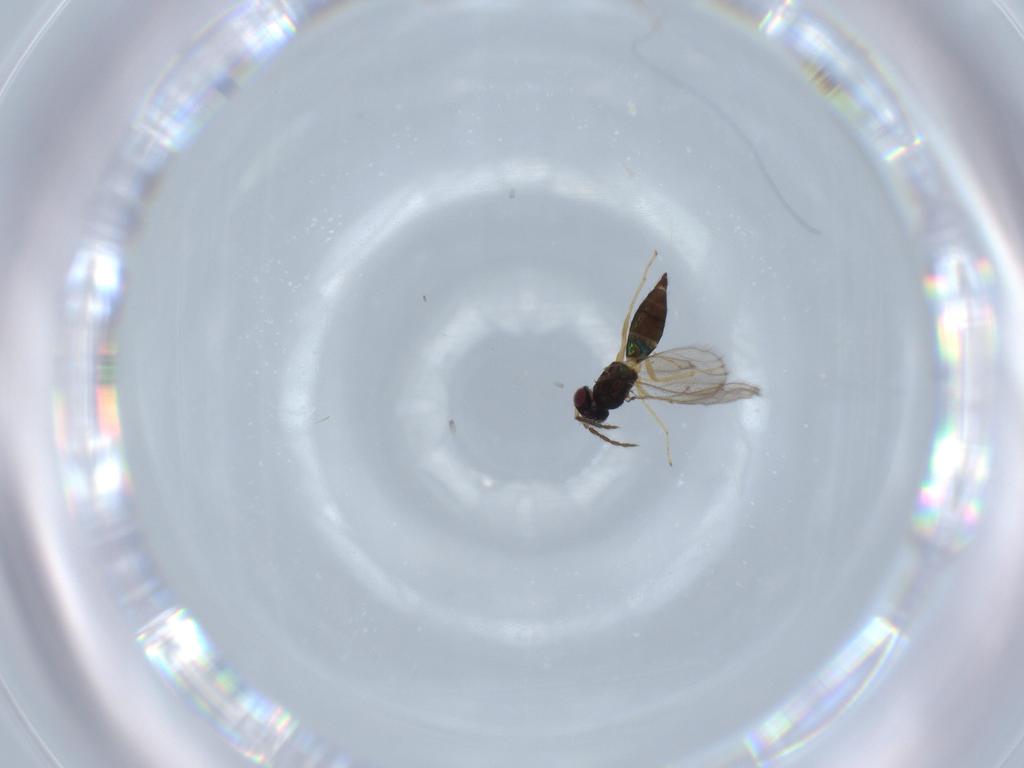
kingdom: Animalia
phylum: Arthropoda
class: Insecta
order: Hymenoptera
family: Eulophidae
